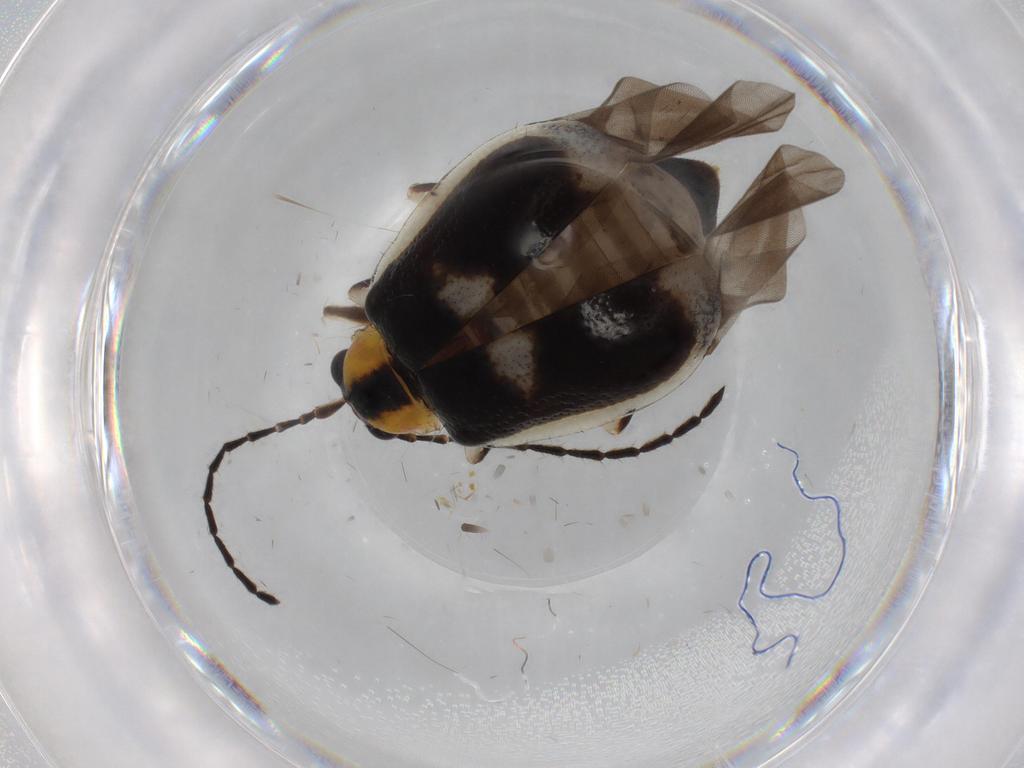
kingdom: Animalia
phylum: Arthropoda
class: Insecta
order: Coleoptera
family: Chrysomelidae
